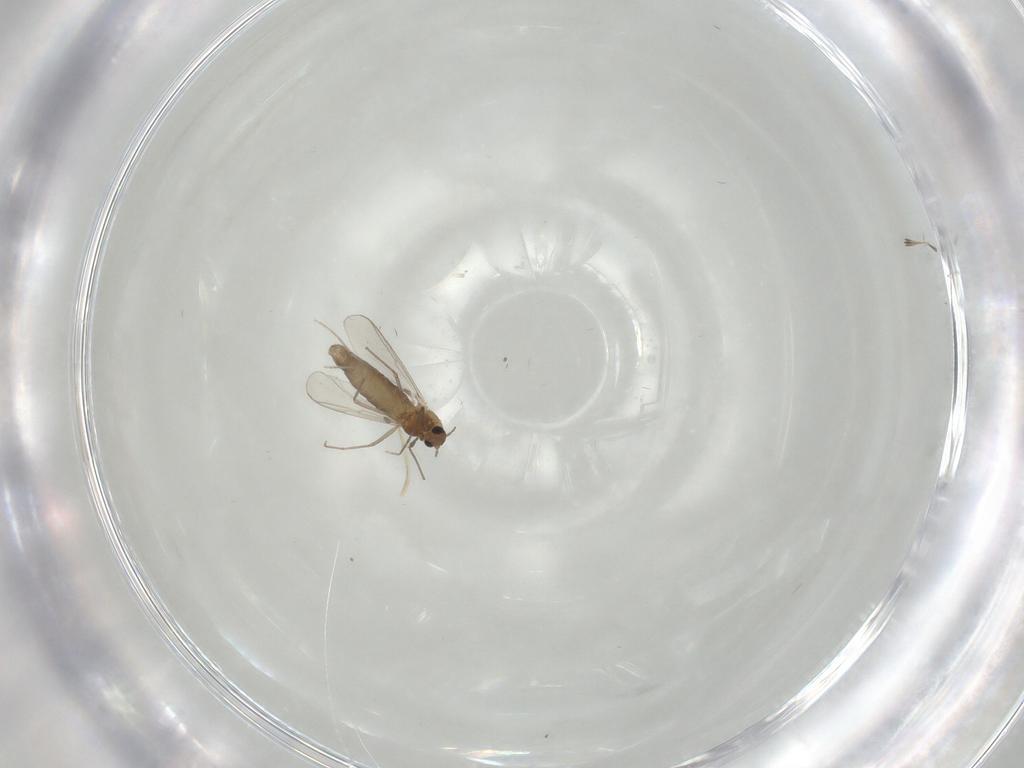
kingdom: Animalia
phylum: Arthropoda
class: Insecta
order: Diptera
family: Chironomidae
